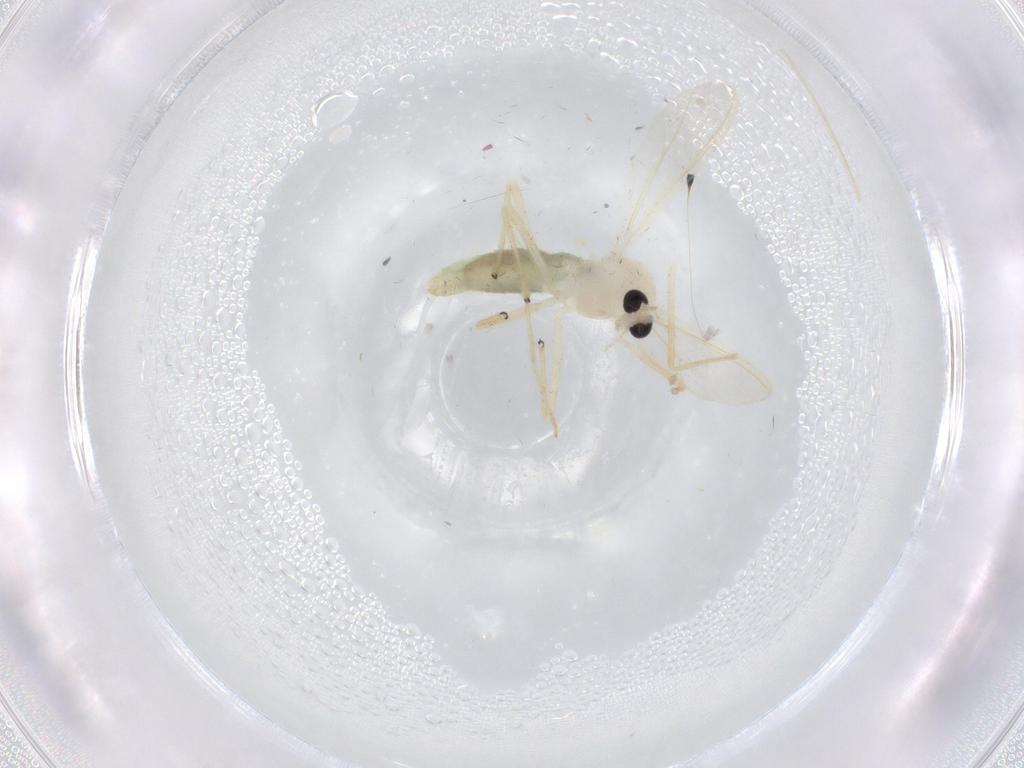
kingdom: Animalia
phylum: Arthropoda
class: Insecta
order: Diptera
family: Chironomidae
